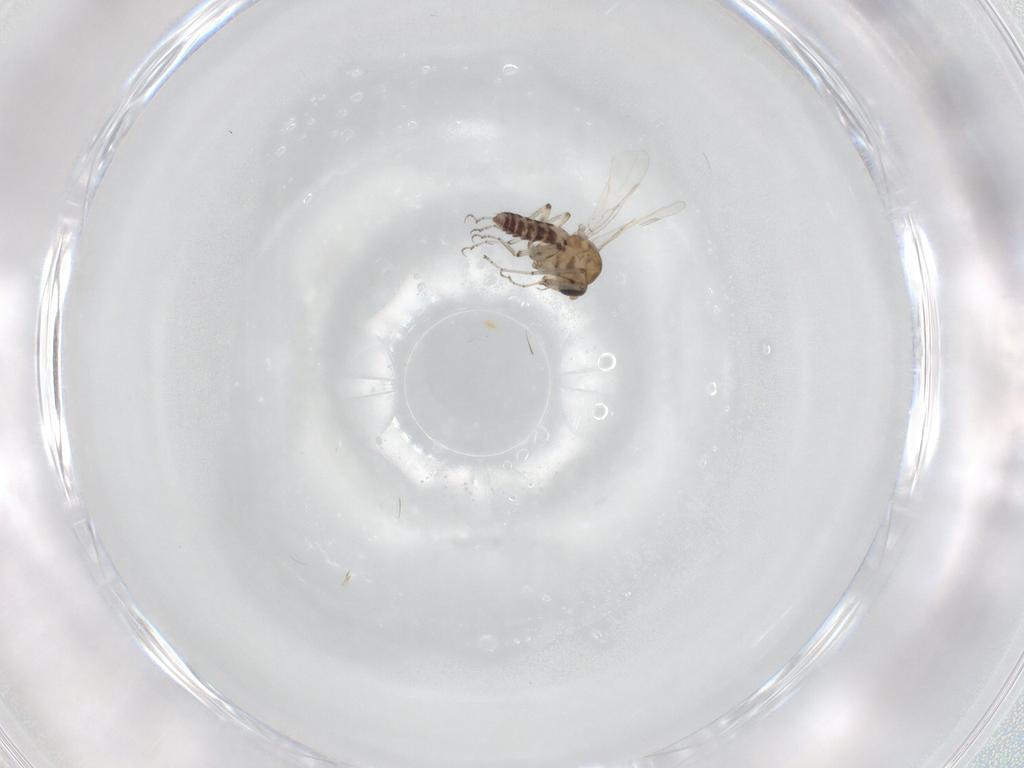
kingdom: Animalia
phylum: Arthropoda
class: Insecta
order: Diptera
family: Ceratopogonidae
